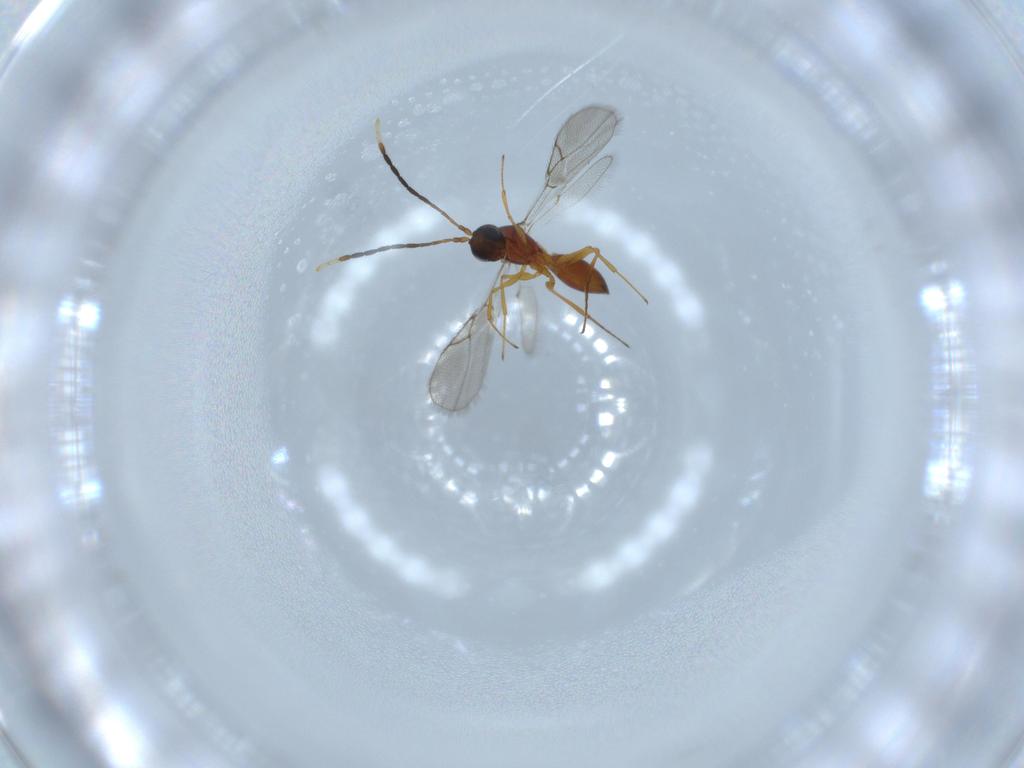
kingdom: Animalia
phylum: Arthropoda
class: Insecta
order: Hymenoptera
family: Figitidae
